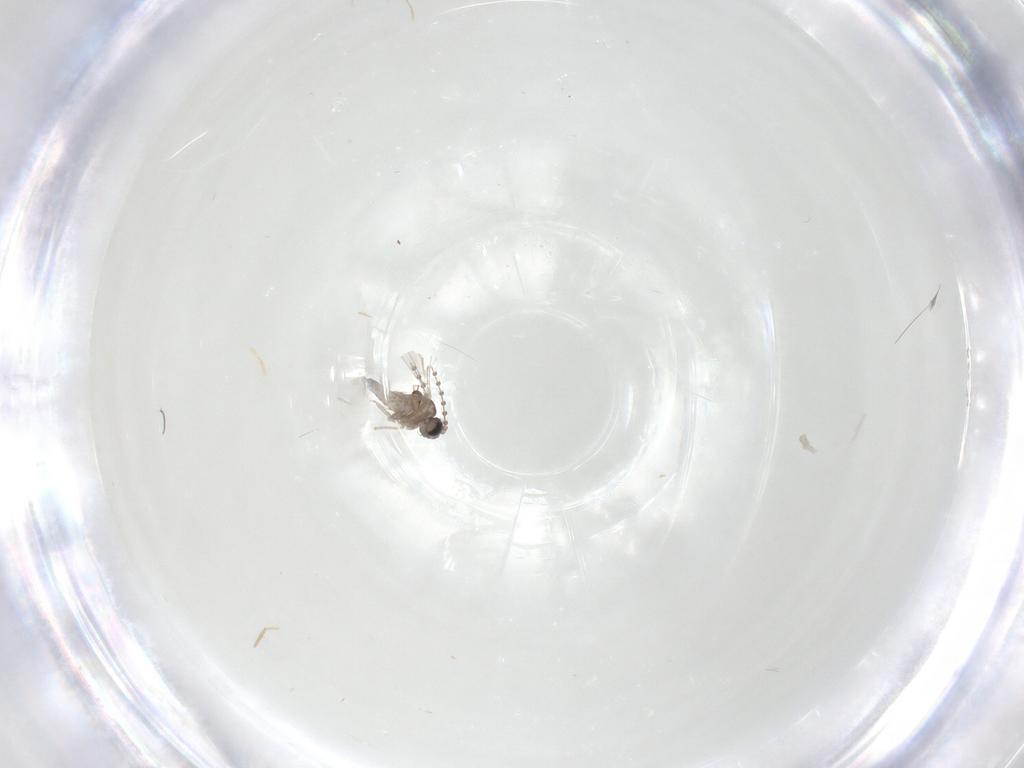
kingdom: Animalia
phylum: Arthropoda
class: Insecta
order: Diptera
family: Cecidomyiidae
